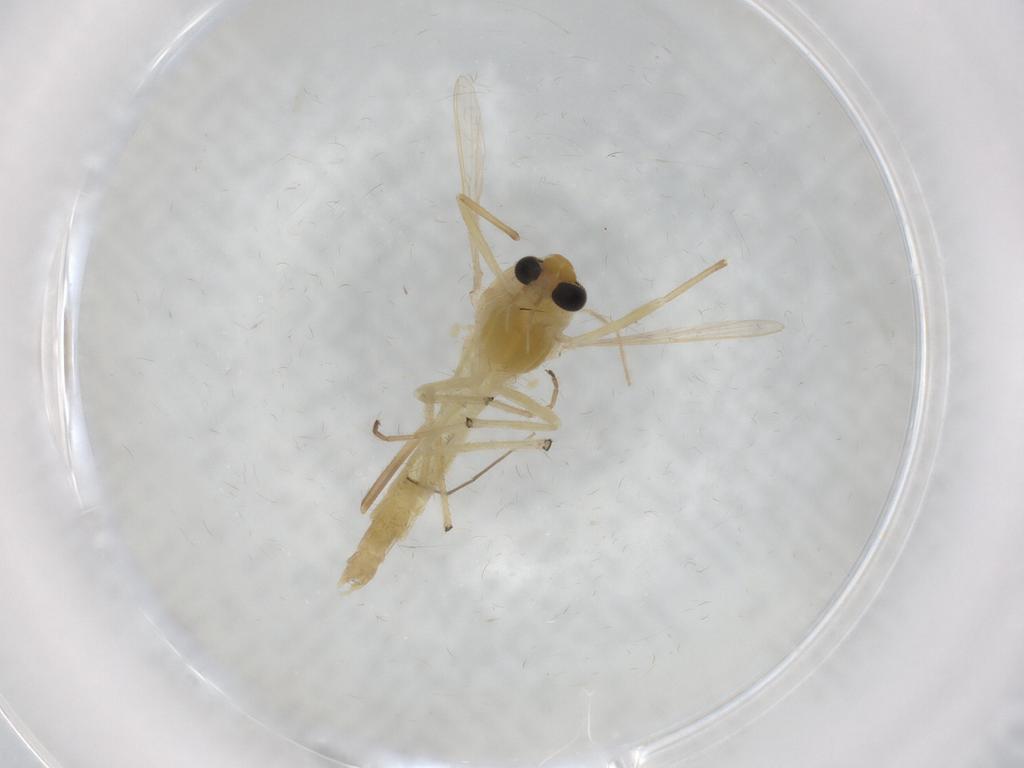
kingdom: Animalia
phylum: Arthropoda
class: Insecta
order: Diptera
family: Chironomidae
